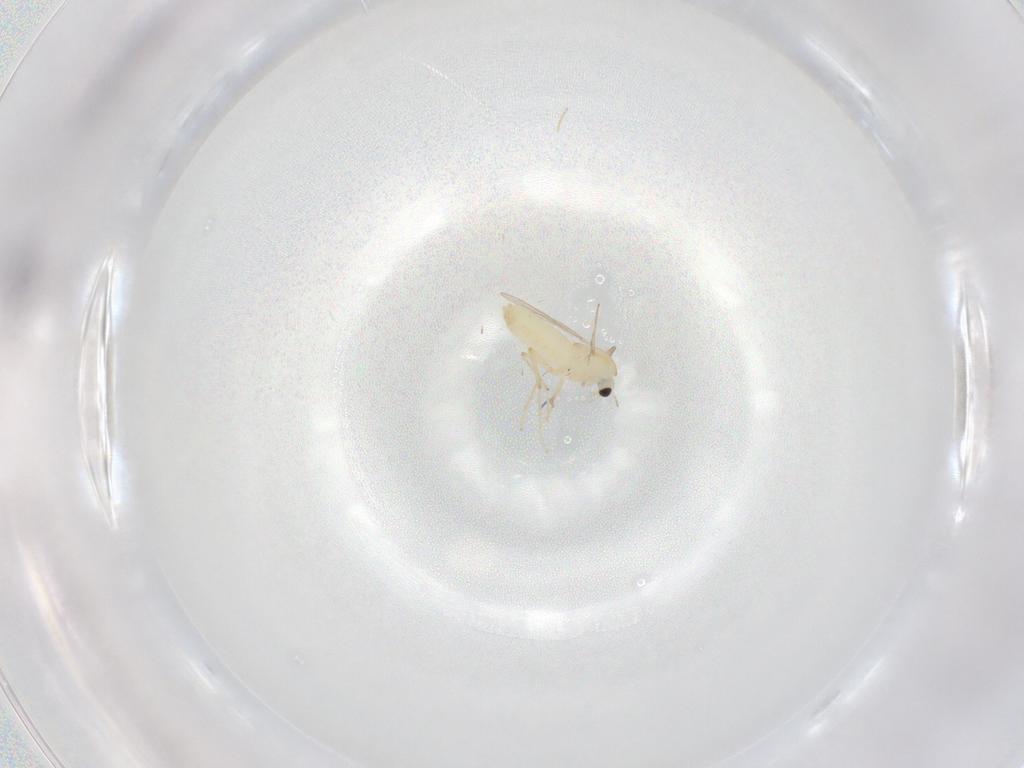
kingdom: Animalia
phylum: Arthropoda
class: Insecta
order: Diptera
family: Chironomidae
